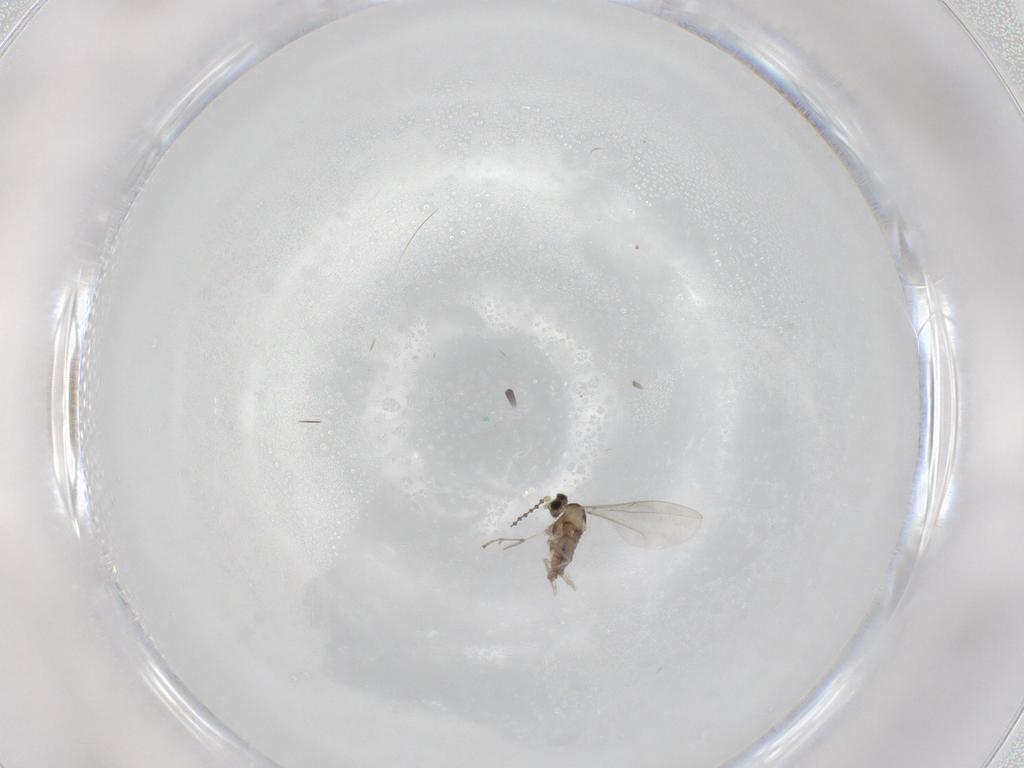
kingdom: Animalia
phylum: Arthropoda
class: Insecta
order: Diptera
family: Cecidomyiidae
